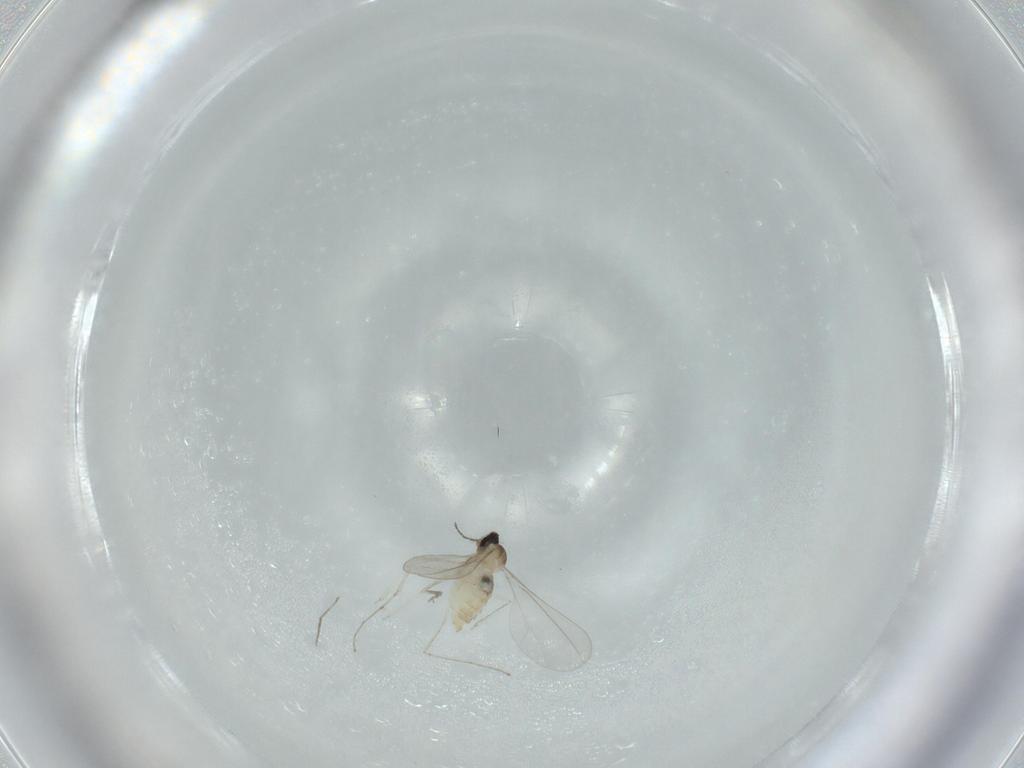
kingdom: Animalia
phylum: Arthropoda
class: Insecta
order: Diptera
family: Cecidomyiidae
